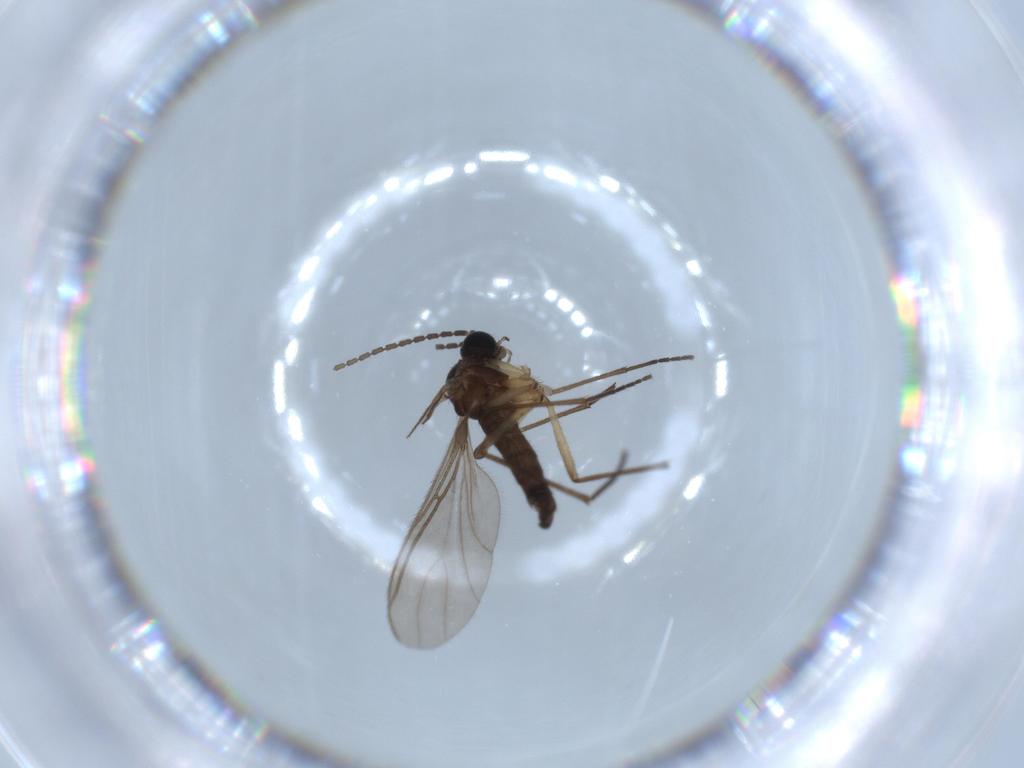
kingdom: Animalia
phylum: Arthropoda
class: Insecta
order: Diptera
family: Sciaridae
